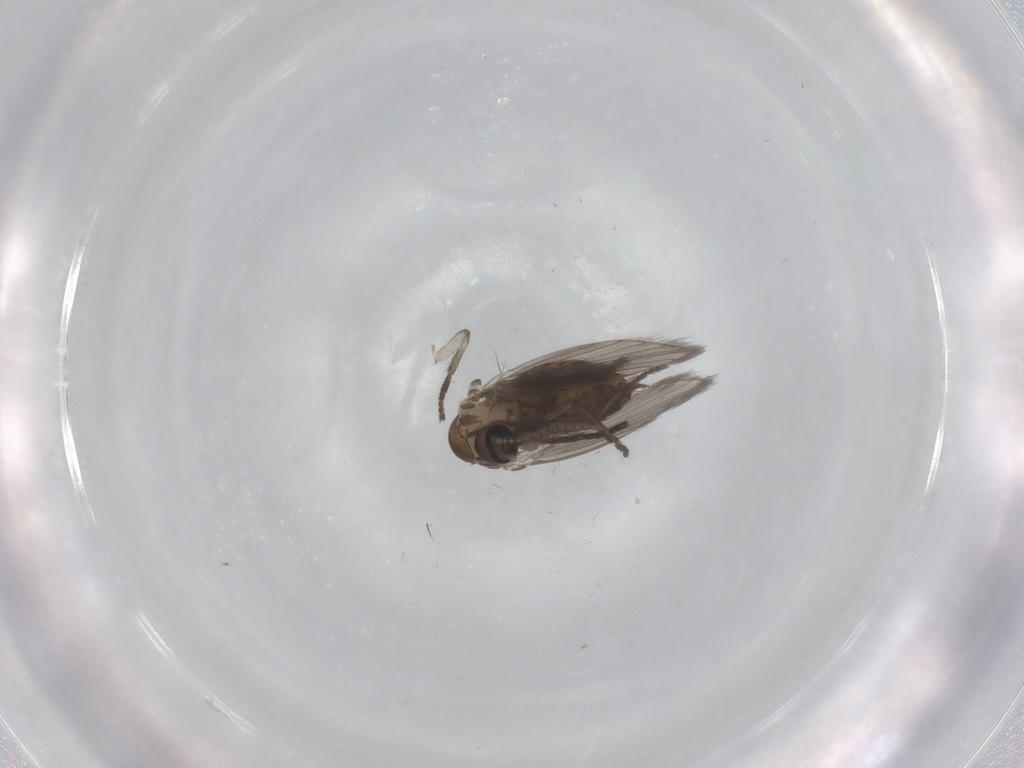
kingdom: Animalia
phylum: Arthropoda
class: Insecta
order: Diptera
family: Psychodidae
